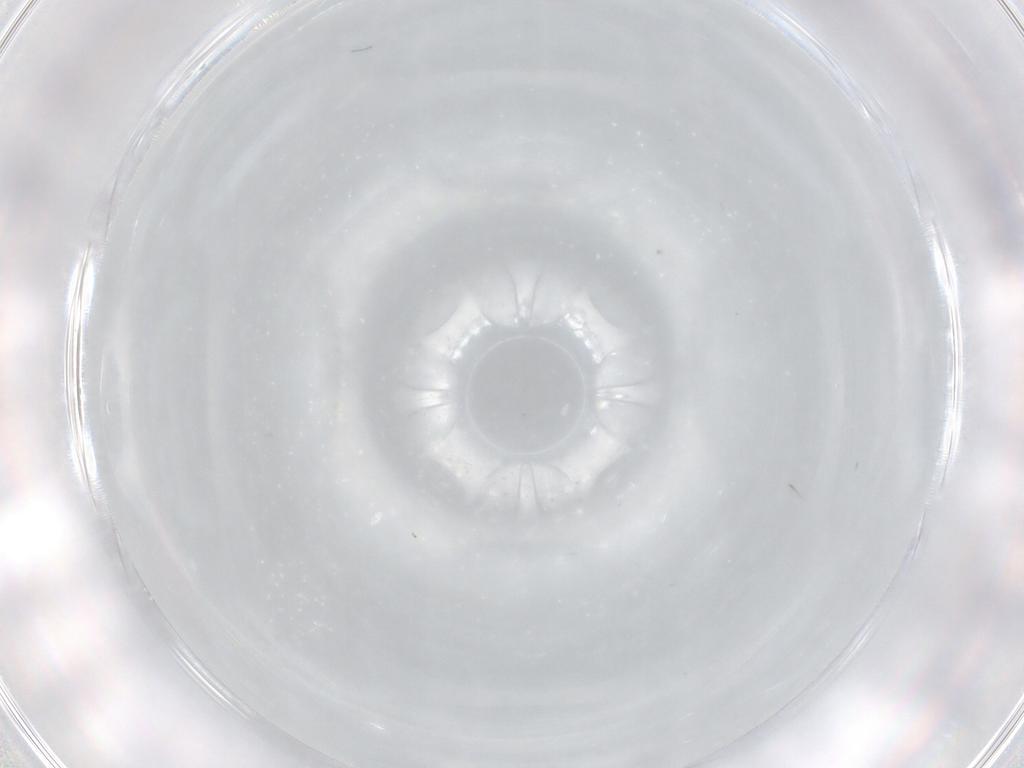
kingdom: Animalia
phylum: Arthropoda
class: Insecta
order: Diptera
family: Cecidomyiidae
